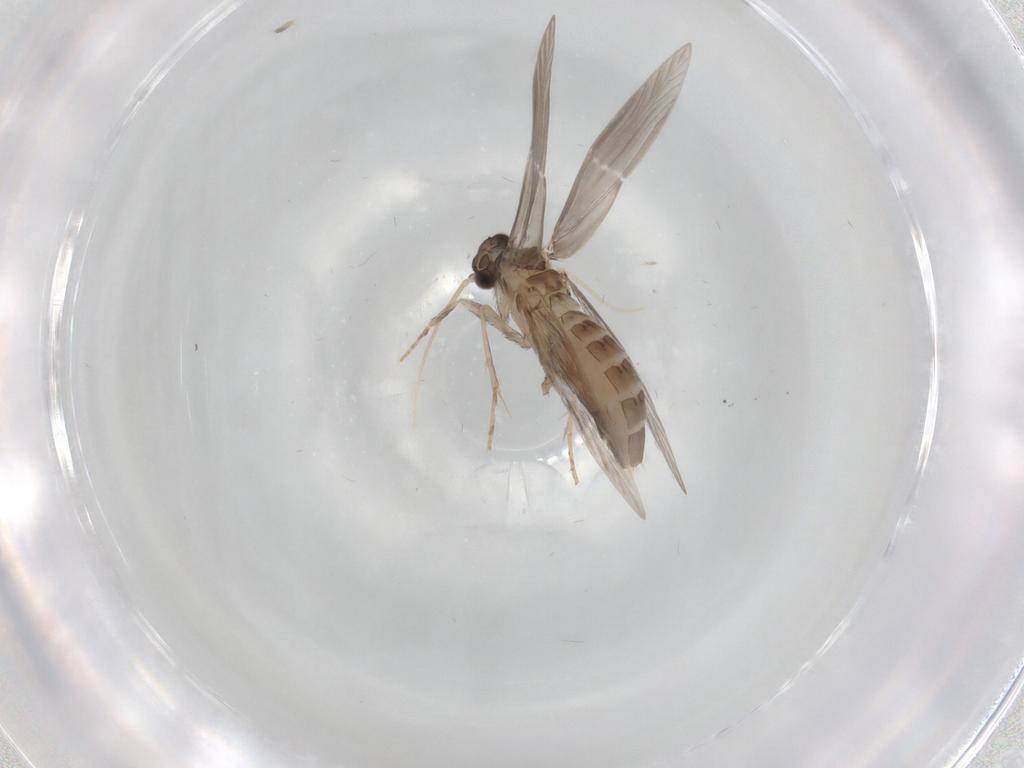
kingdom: Animalia
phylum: Arthropoda
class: Insecta
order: Trichoptera
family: Hydroptilidae
